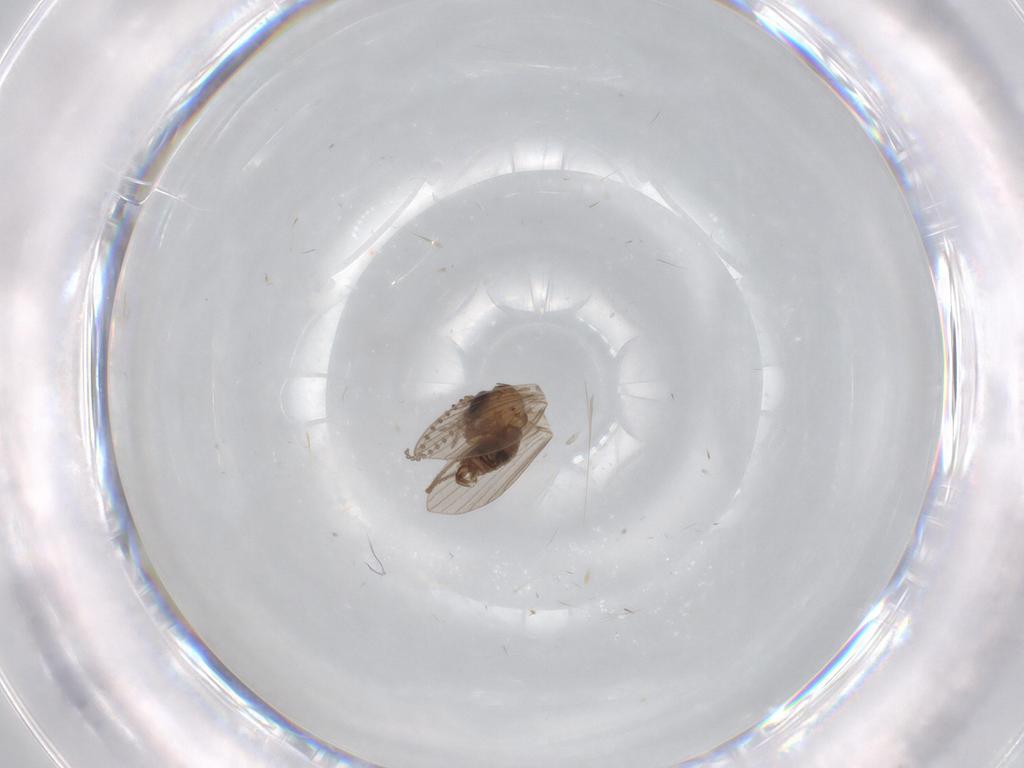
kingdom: Animalia
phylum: Arthropoda
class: Insecta
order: Diptera
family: Psychodidae
